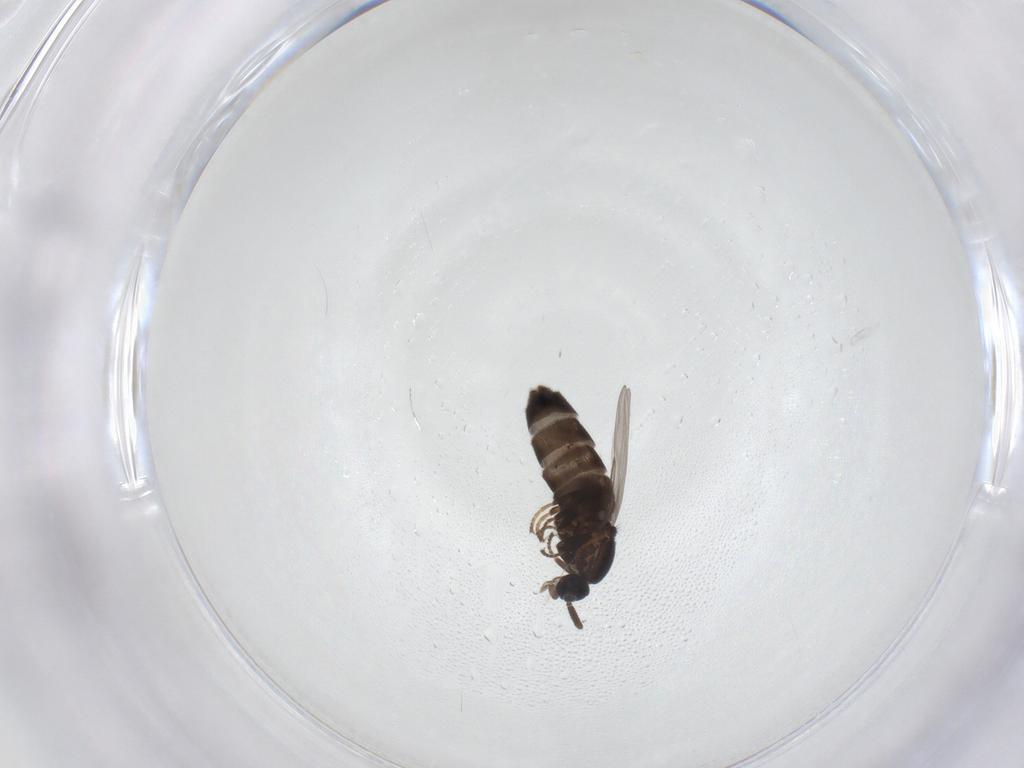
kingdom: Animalia
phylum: Arthropoda
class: Insecta
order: Diptera
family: Scatopsidae
